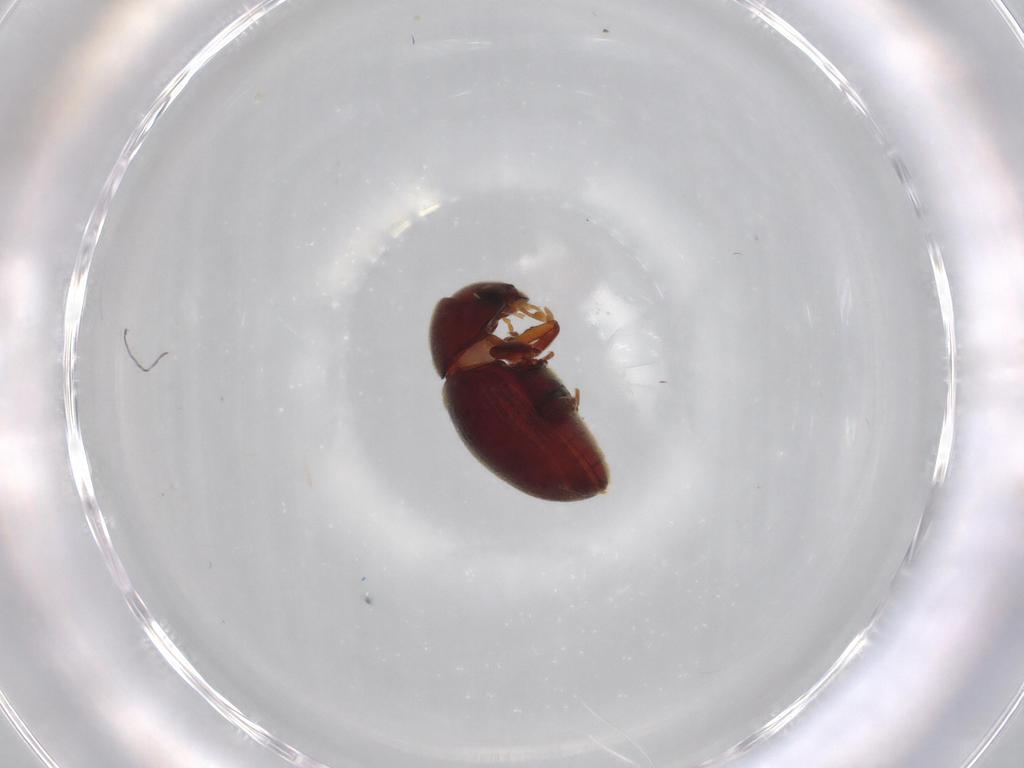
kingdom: Animalia
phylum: Arthropoda
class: Insecta
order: Coleoptera
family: Ptinidae
